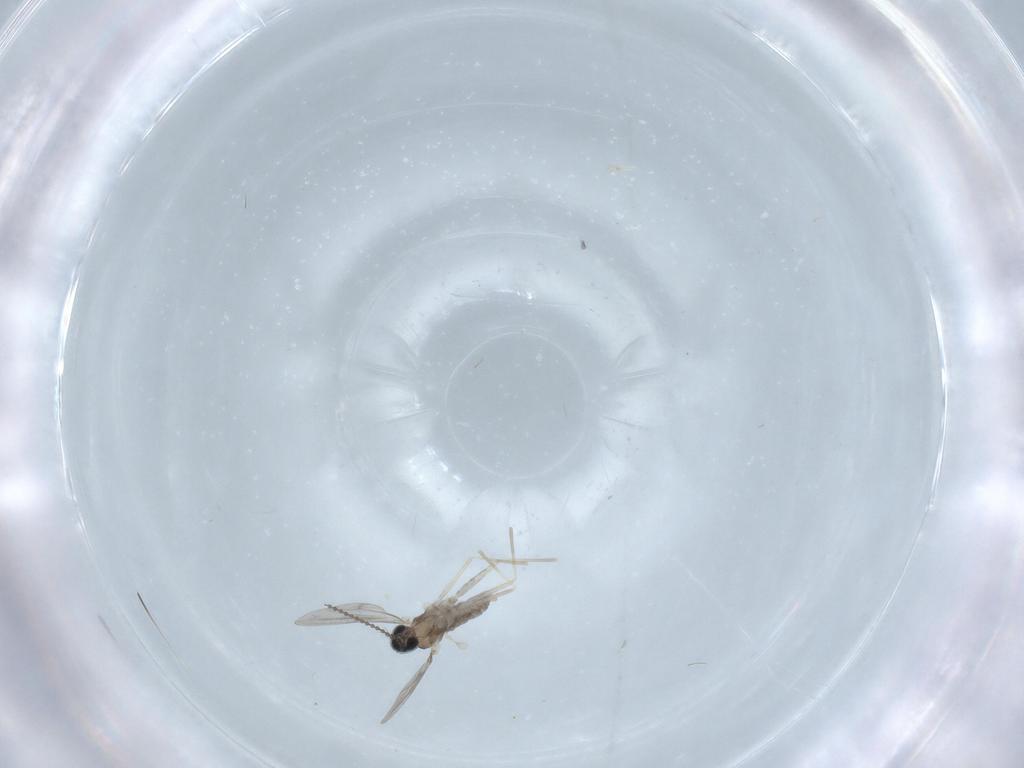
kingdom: Animalia
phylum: Arthropoda
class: Insecta
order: Diptera
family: Cecidomyiidae
